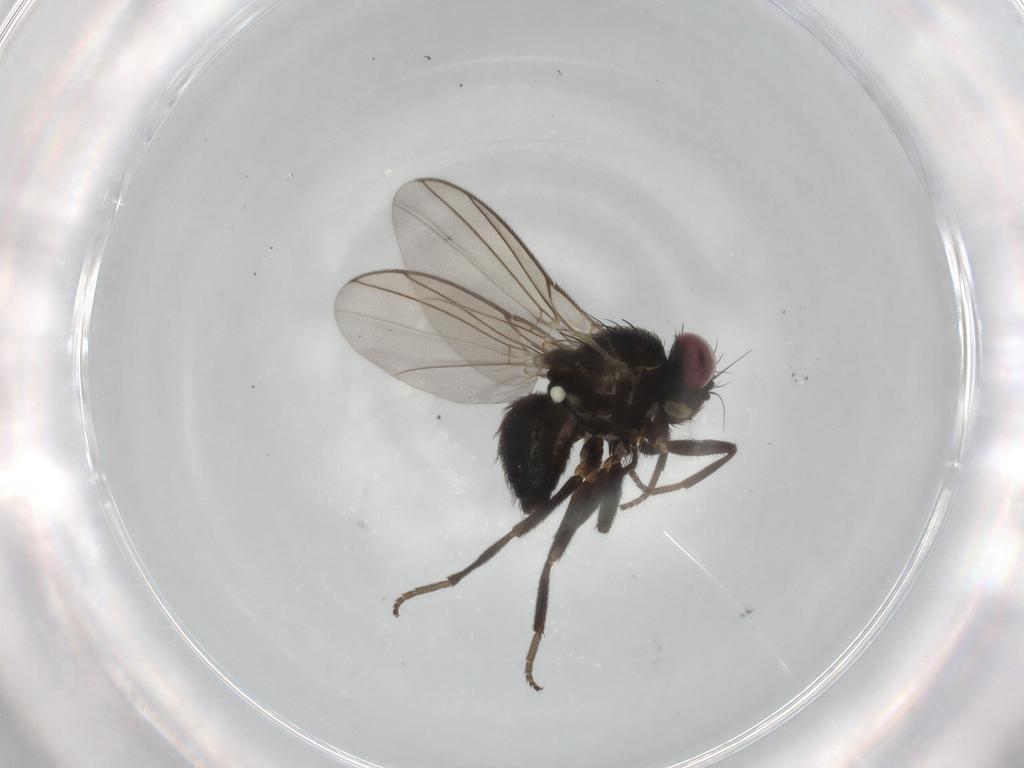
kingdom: Animalia
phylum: Arthropoda
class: Insecta
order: Diptera
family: Agromyzidae
